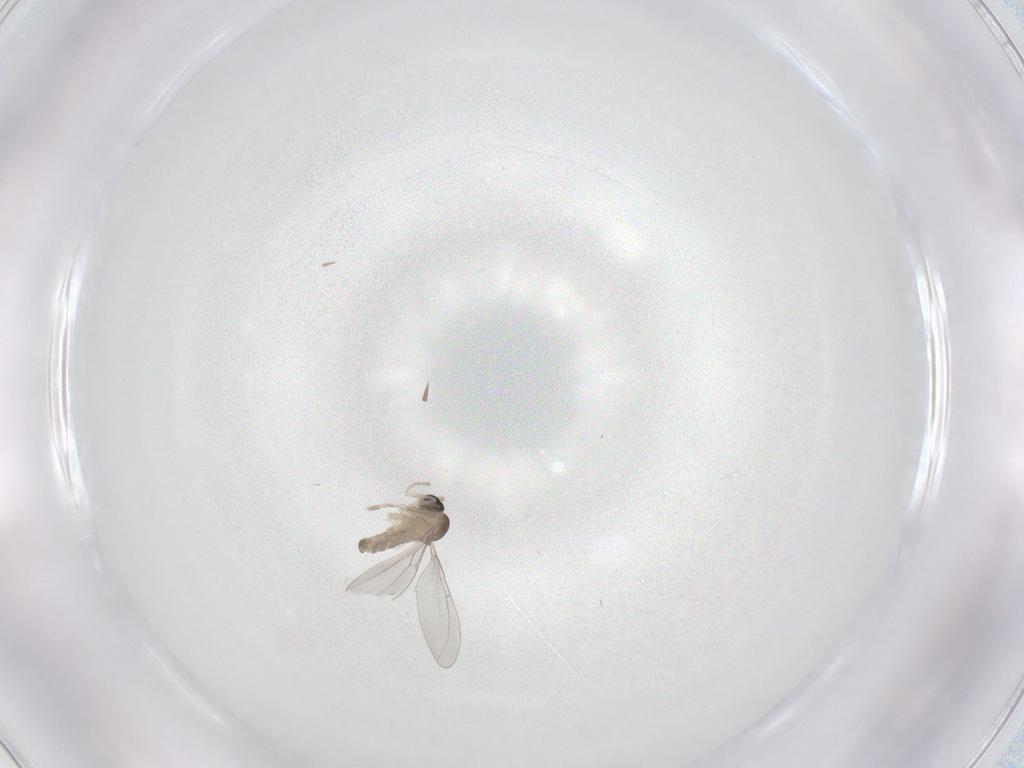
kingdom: Animalia
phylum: Arthropoda
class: Insecta
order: Diptera
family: Cecidomyiidae
